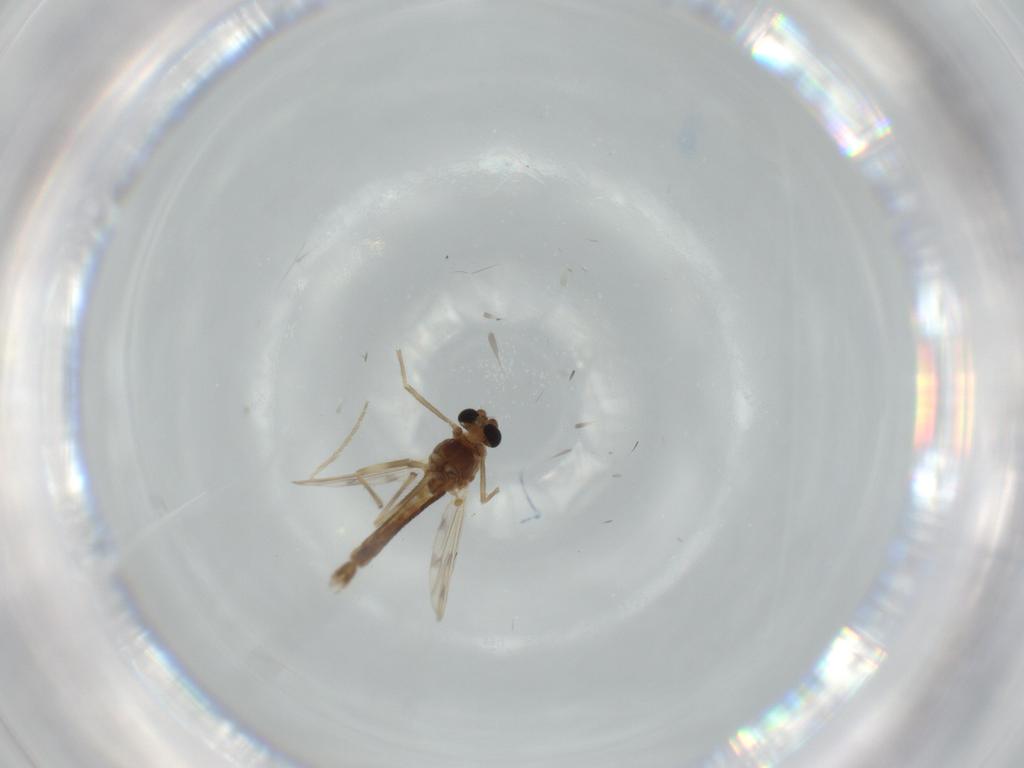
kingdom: Animalia
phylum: Arthropoda
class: Insecta
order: Diptera
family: Chironomidae
